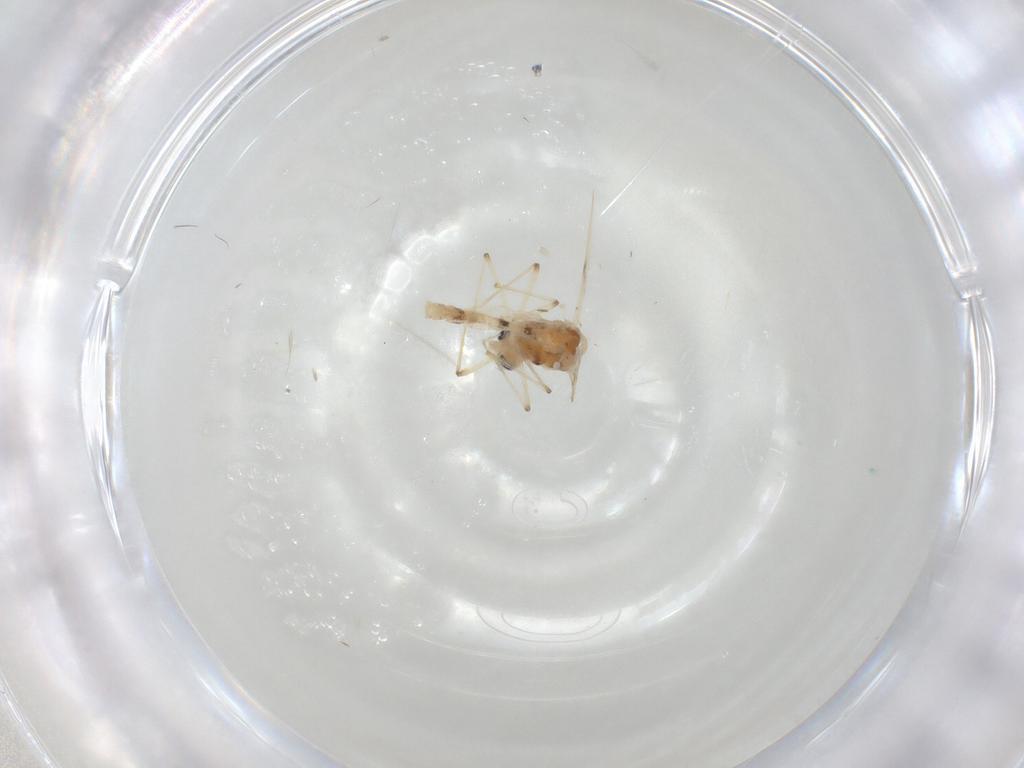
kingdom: Animalia
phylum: Arthropoda
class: Insecta
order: Diptera
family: Chironomidae
